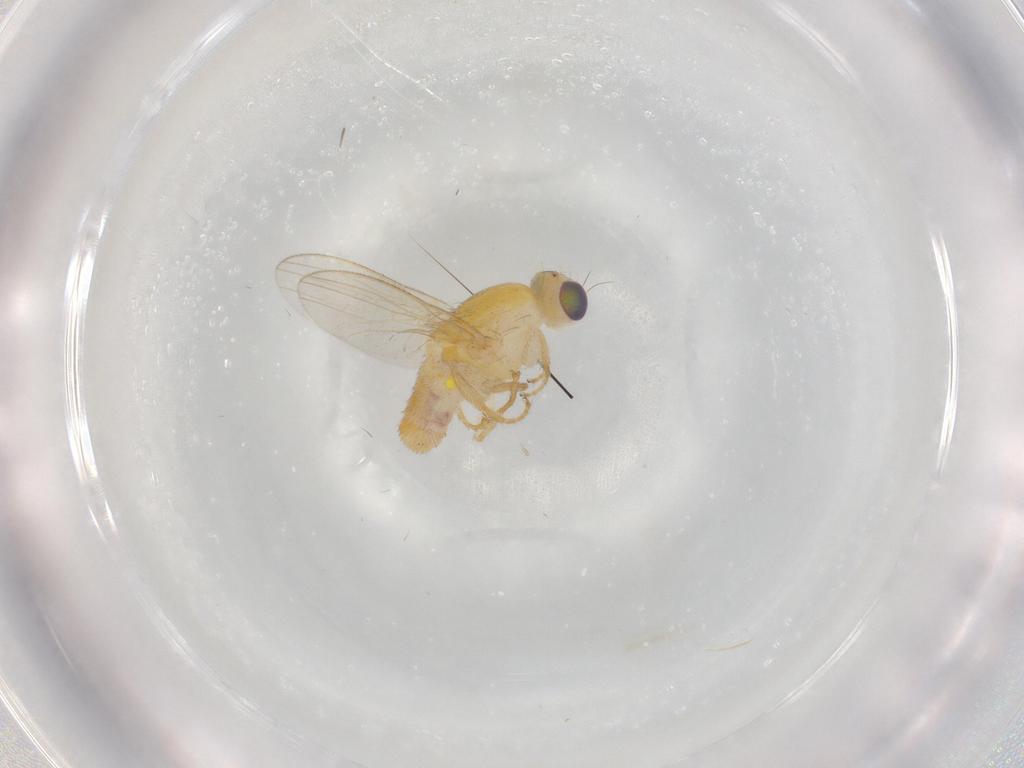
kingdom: Animalia
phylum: Arthropoda
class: Insecta
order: Diptera
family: Chyromyidae
